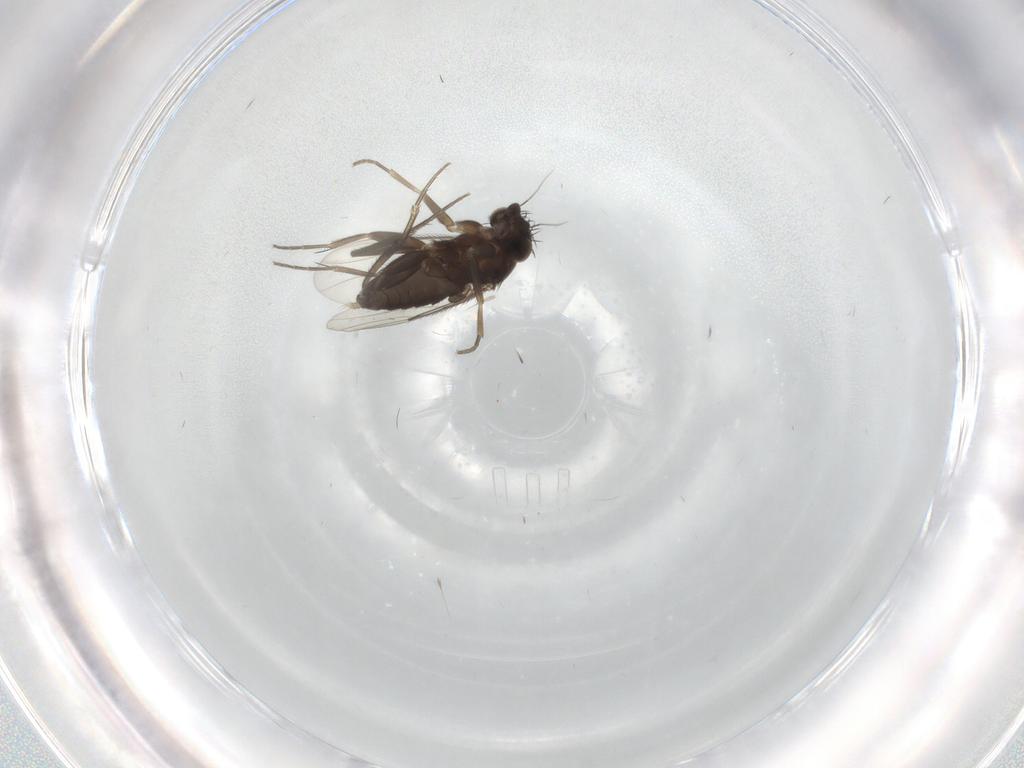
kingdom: Animalia
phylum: Arthropoda
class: Insecta
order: Diptera
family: Phoridae
